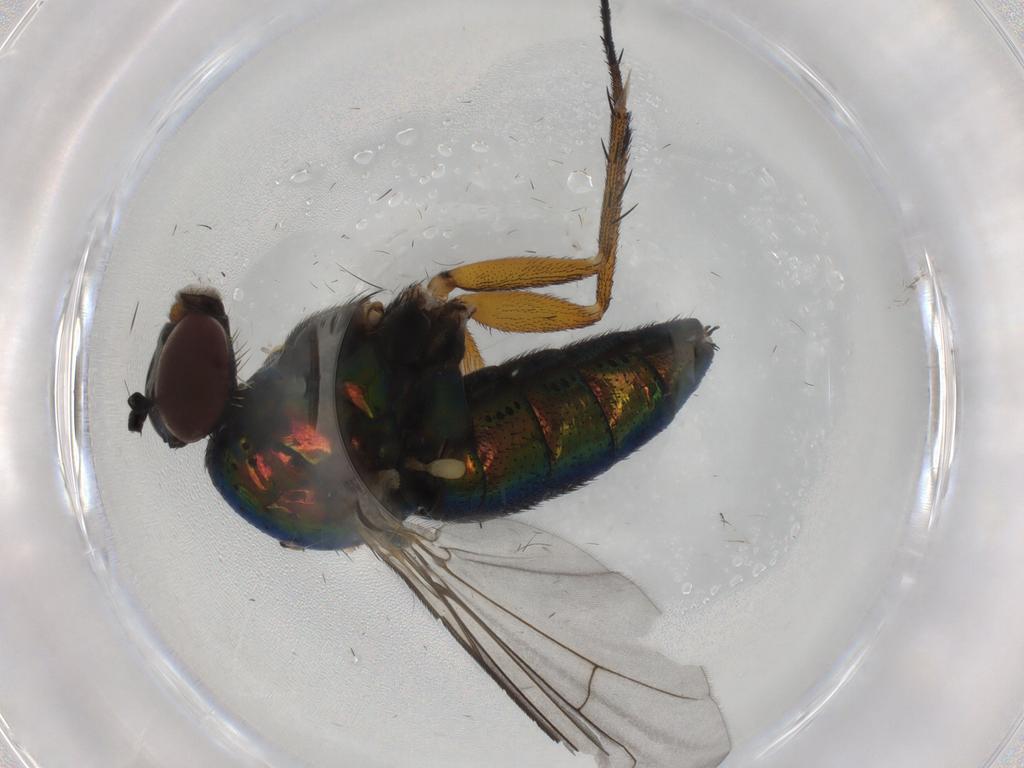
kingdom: Animalia
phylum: Arthropoda
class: Insecta
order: Diptera
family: Dolichopodidae
